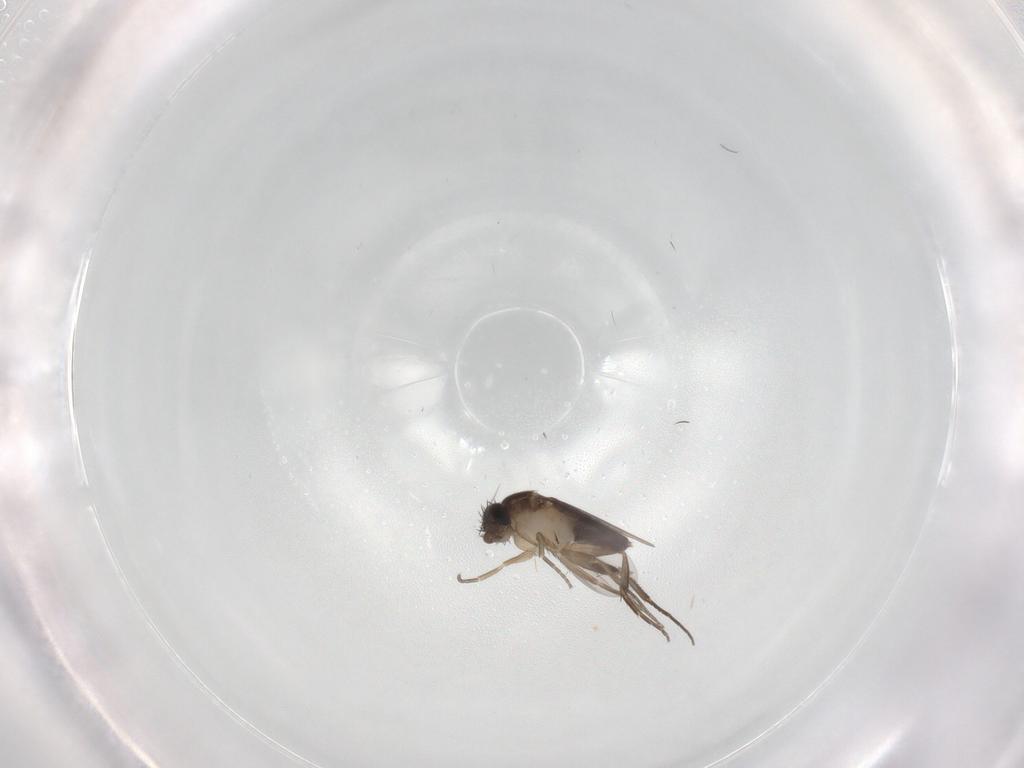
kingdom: Animalia
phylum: Arthropoda
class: Insecta
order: Diptera
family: Phoridae
